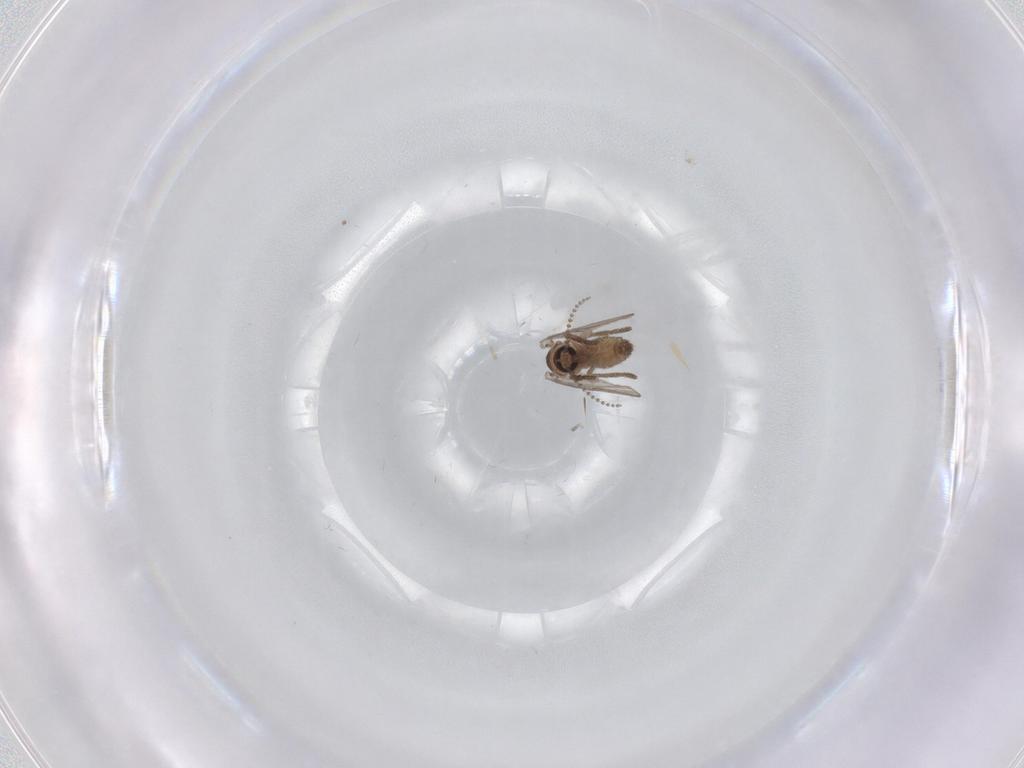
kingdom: Animalia
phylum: Arthropoda
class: Insecta
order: Diptera
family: Psychodidae
